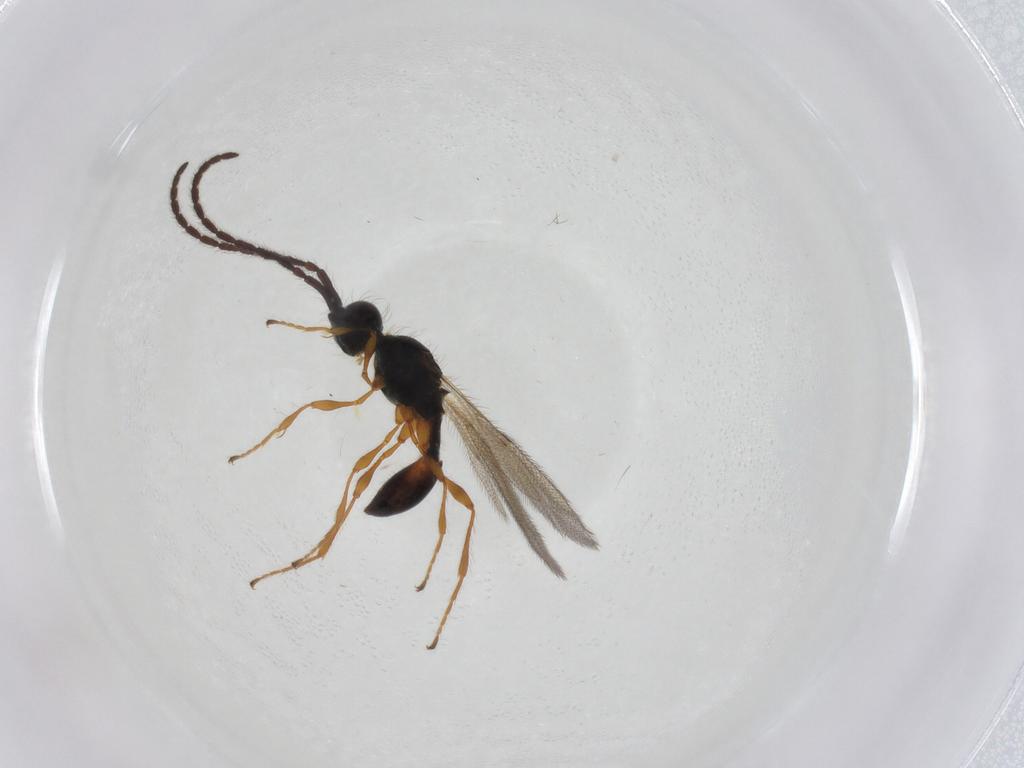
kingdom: Animalia
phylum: Arthropoda
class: Insecta
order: Hymenoptera
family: Diapriidae
